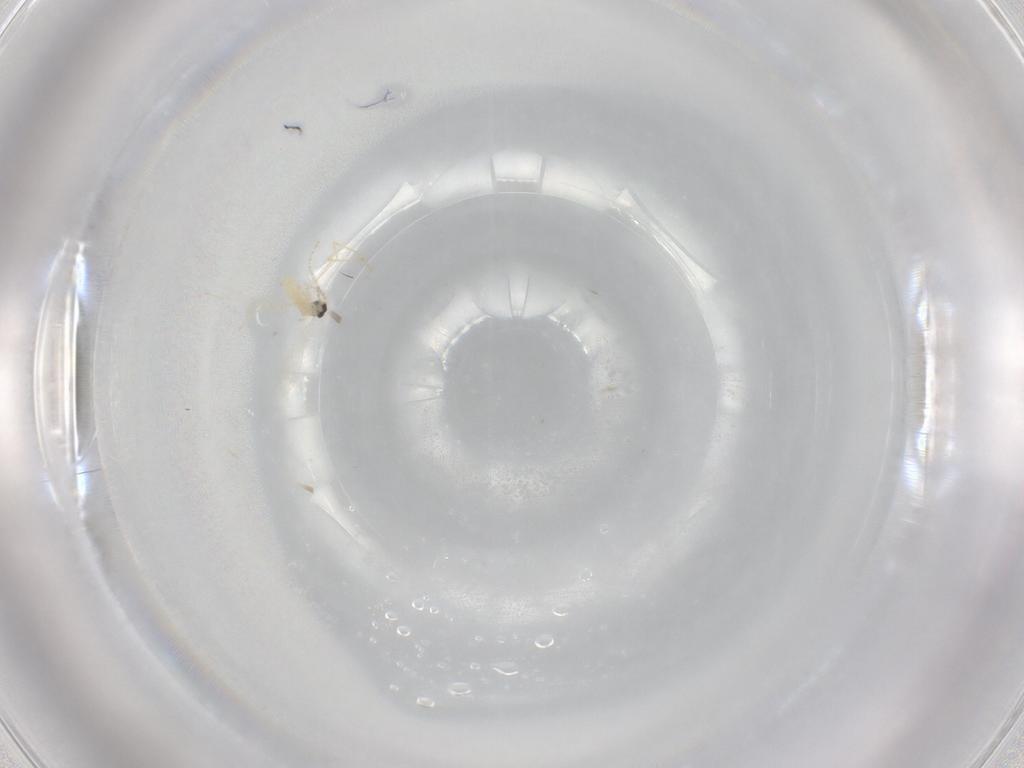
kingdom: Animalia
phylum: Arthropoda
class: Insecta
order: Diptera
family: Cecidomyiidae
